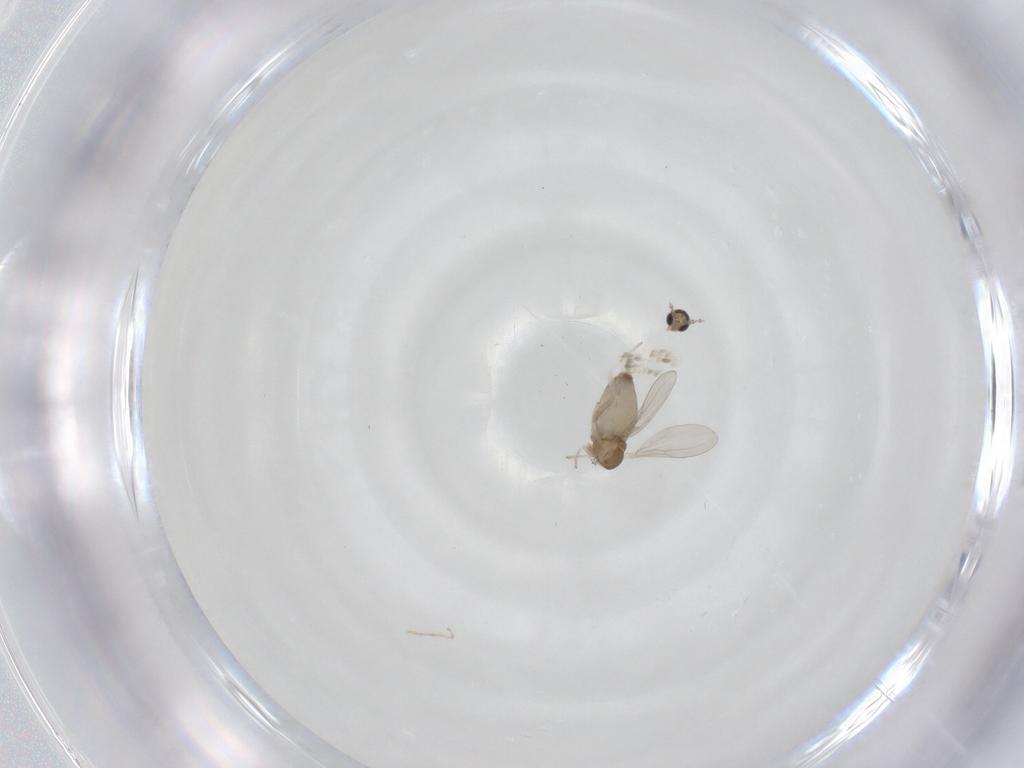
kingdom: Animalia
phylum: Arthropoda
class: Insecta
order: Diptera
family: Cecidomyiidae
